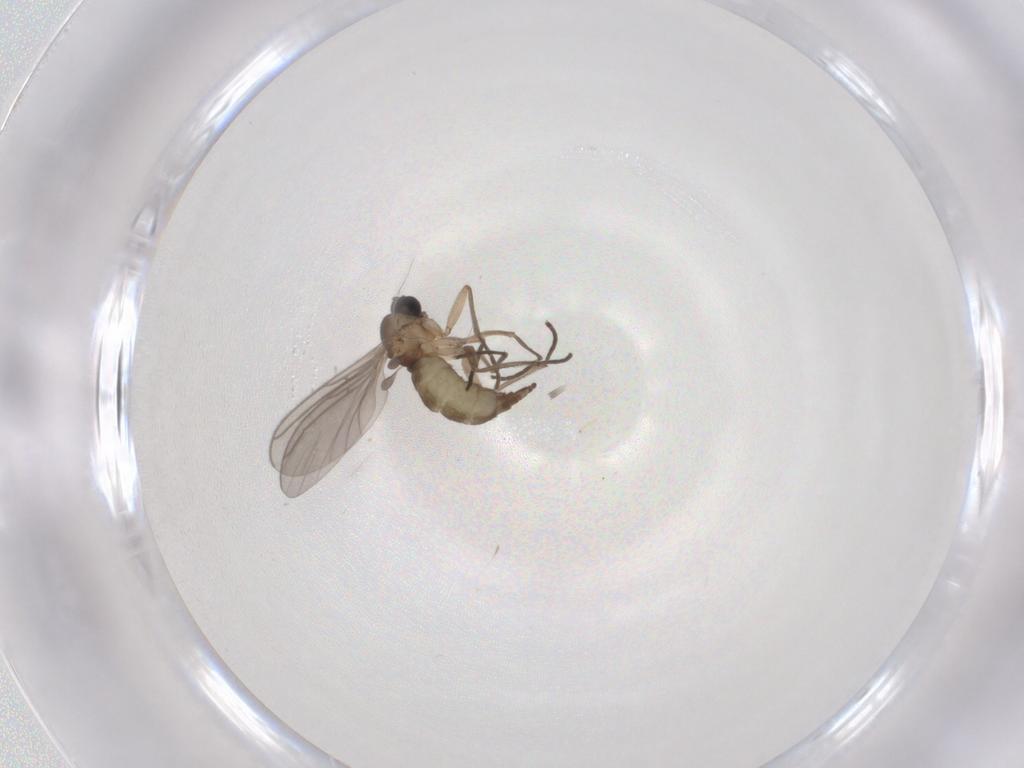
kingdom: Animalia
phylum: Arthropoda
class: Insecta
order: Diptera
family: Sciaridae
